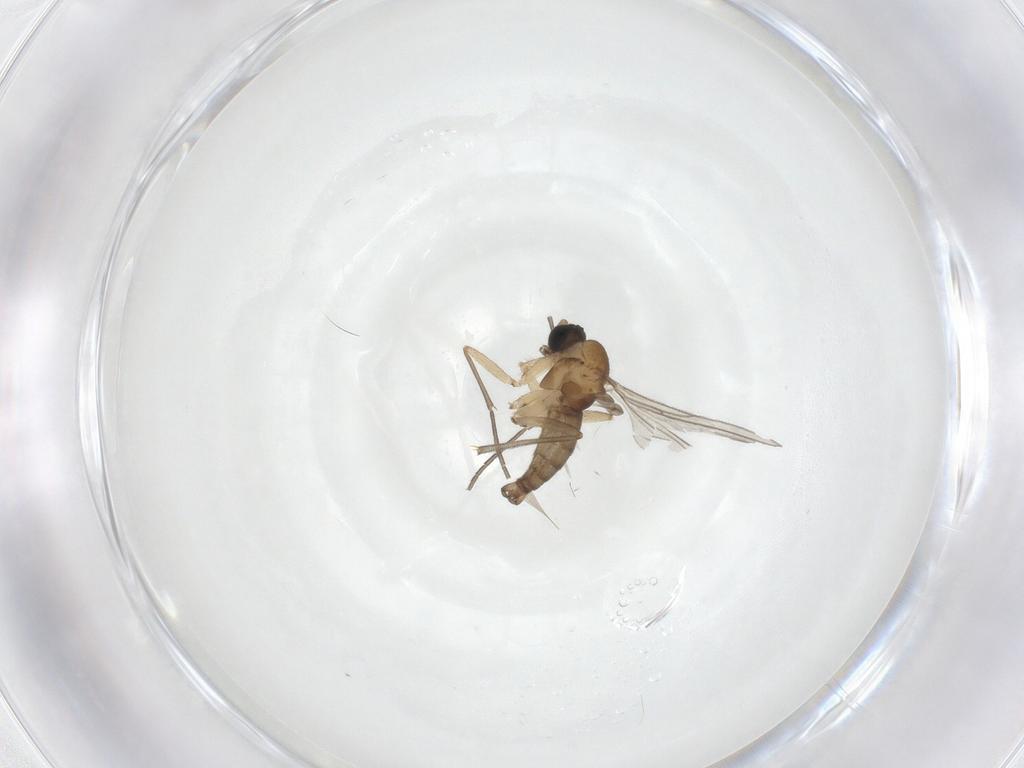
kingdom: Animalia
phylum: Arthropoda
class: Insecta
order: Diptera
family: Sciaridae
